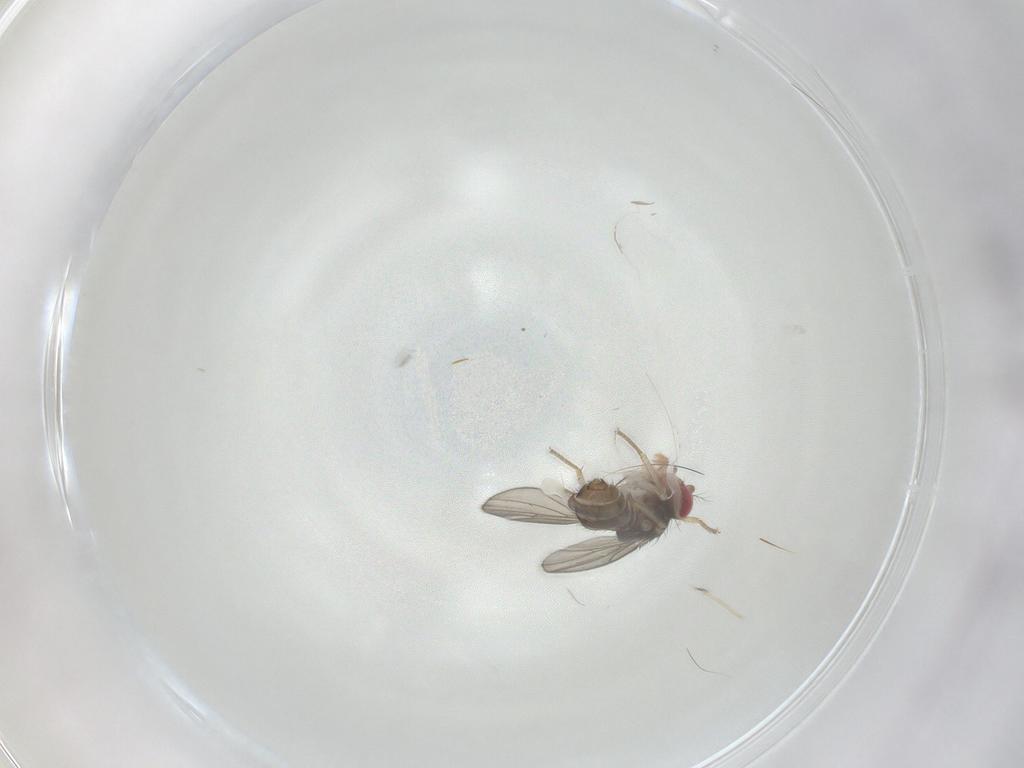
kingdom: Animalia
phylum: Arthropoda
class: Insecta
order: Diptera
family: Drosophilidae
